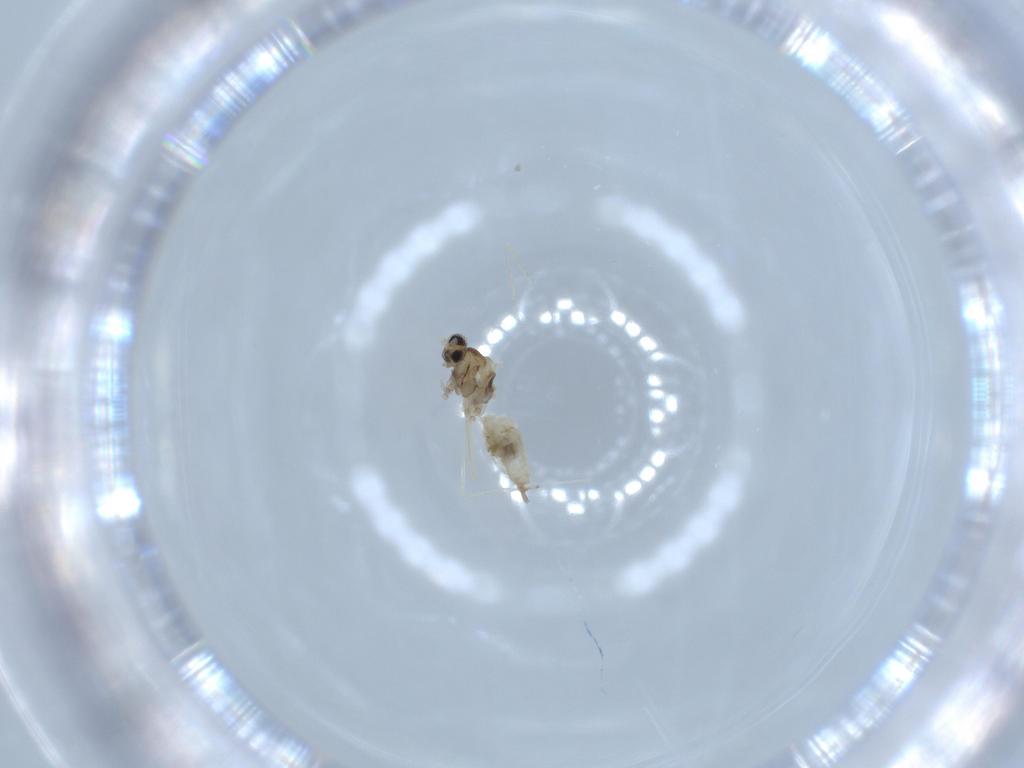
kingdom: Animalia
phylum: Arthropoda
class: Insecta
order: Diptera
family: Cecidomyiidae
